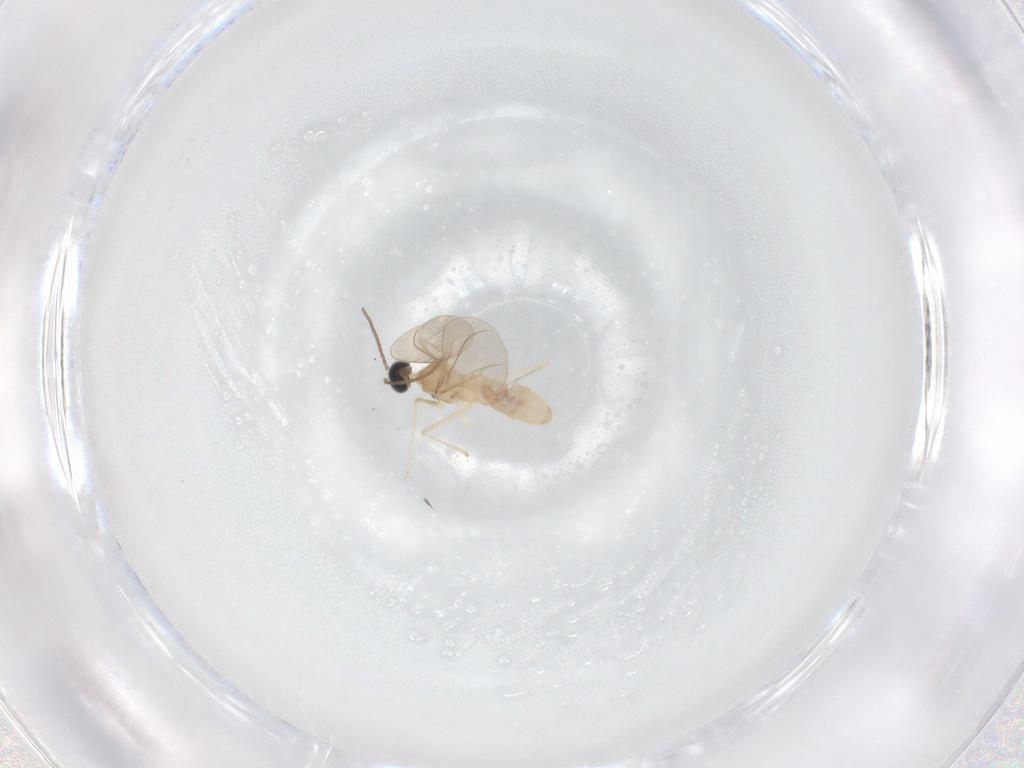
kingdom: Animalia
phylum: Arthropoda
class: Insecta
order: Diptera
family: Cecidomyiidae
